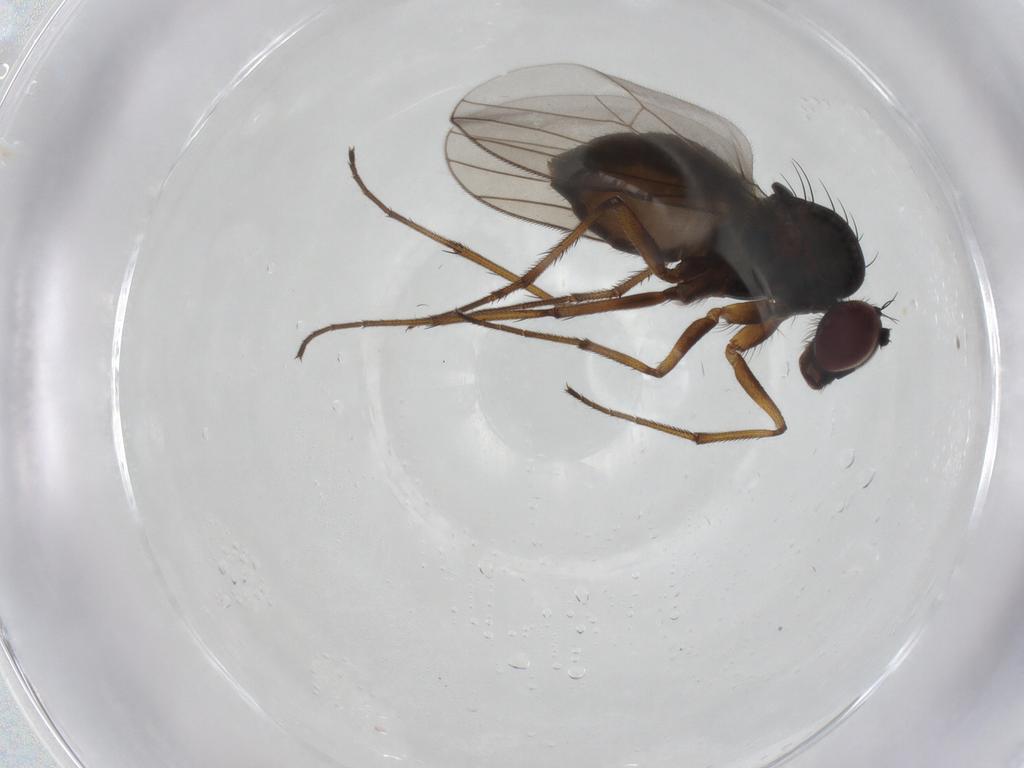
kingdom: Animalia
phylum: Arthropoda
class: Insecta
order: Diptera
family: Dolichopodidae
